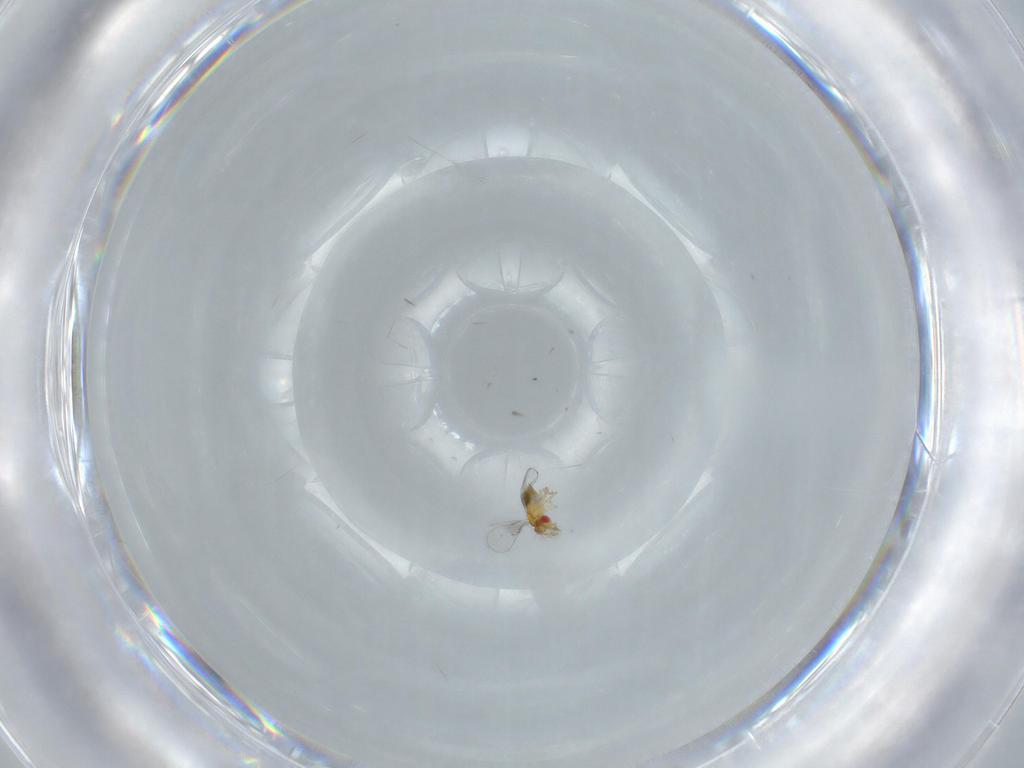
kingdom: Animalia
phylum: Arthropoda
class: Insecta
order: Hymenoptera
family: Trichogrammatidae
